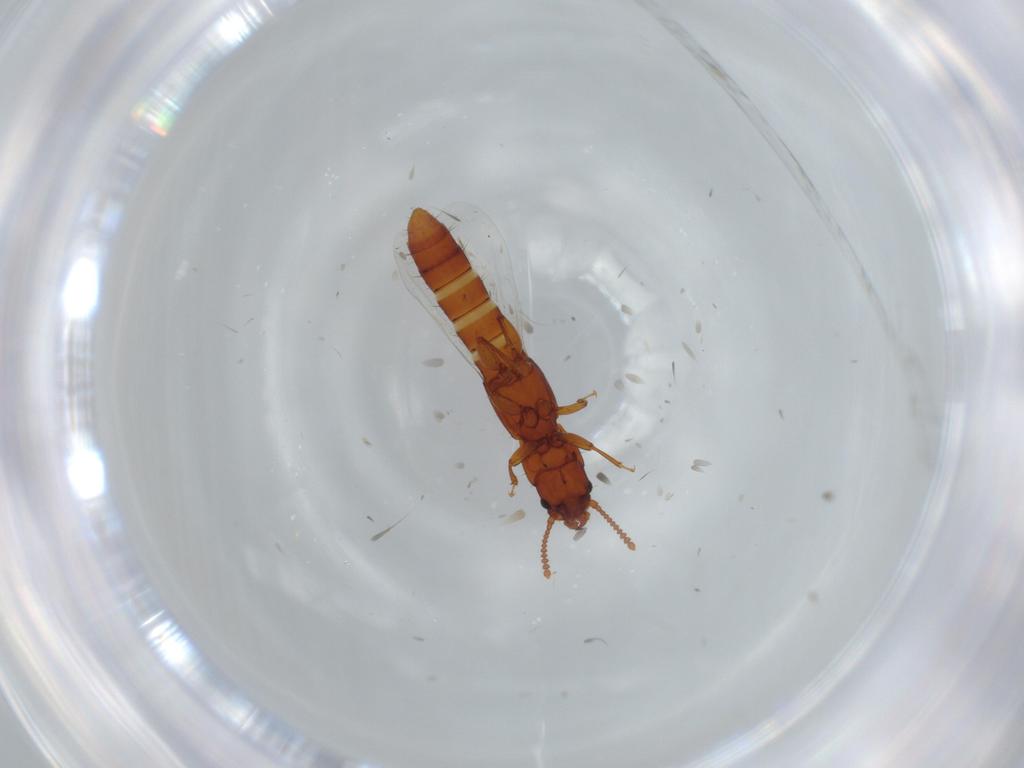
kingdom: Animalia
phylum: Arthropoda
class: Insecta
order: Coleoptera
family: Staphylinidae
